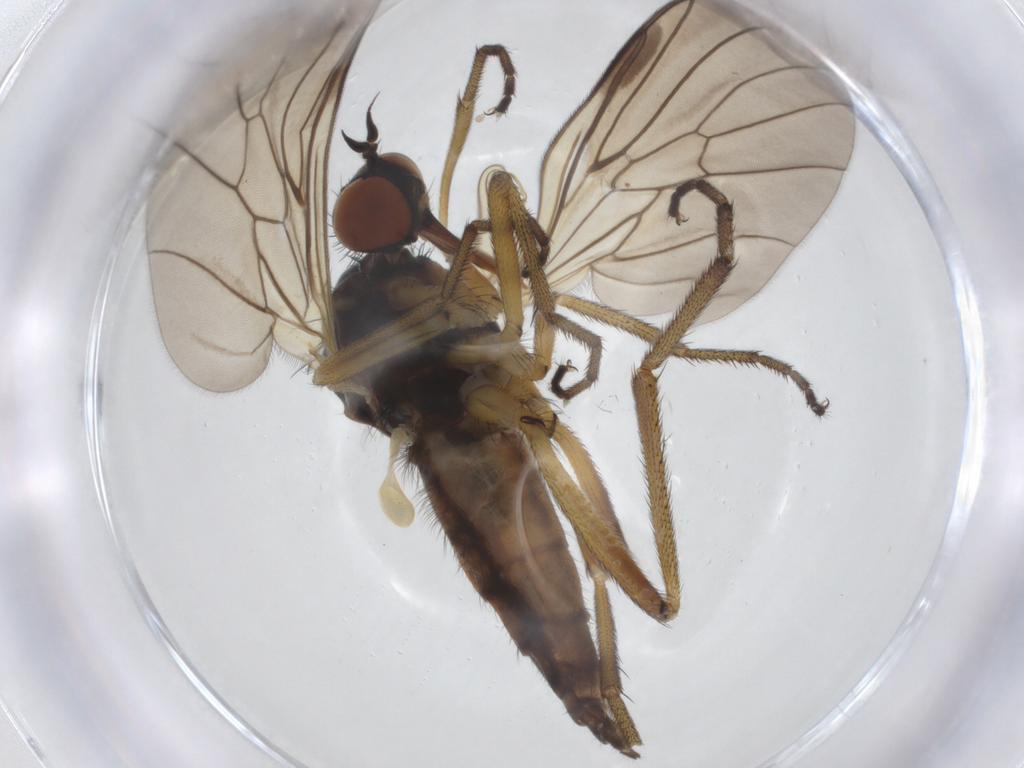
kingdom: Animalia
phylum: Arthropoda
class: Insecta
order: Diptera
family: Empididae
